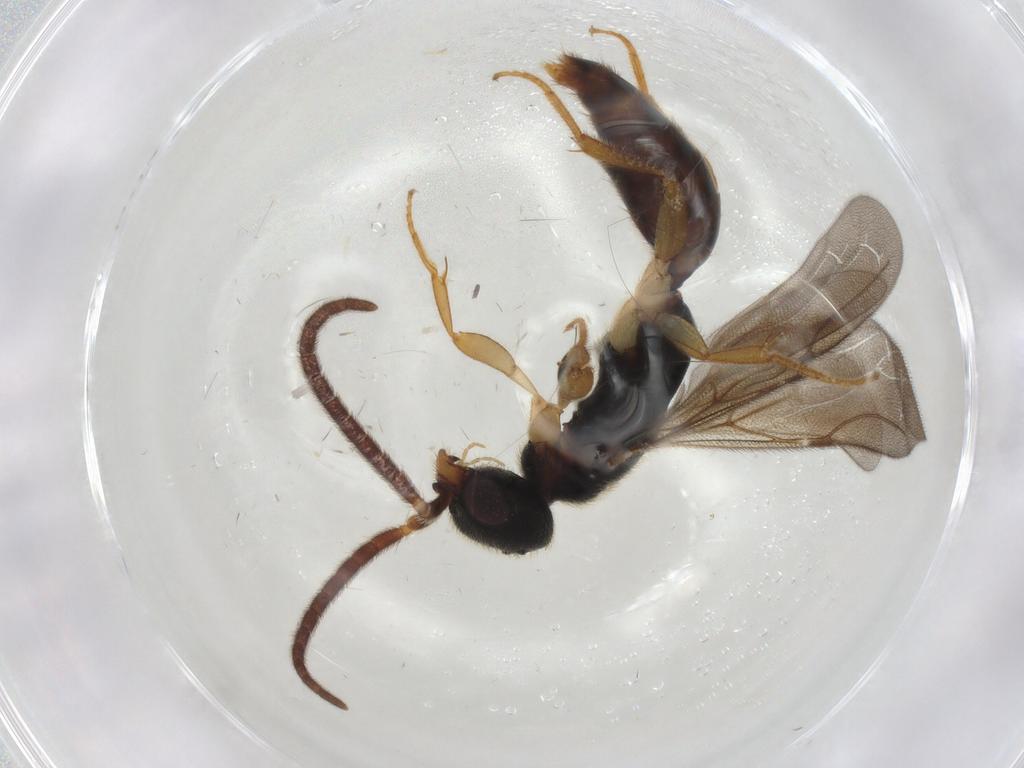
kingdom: Animalia
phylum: Arthropoda
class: Insecta
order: Hymenoptera
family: Bethylidae
